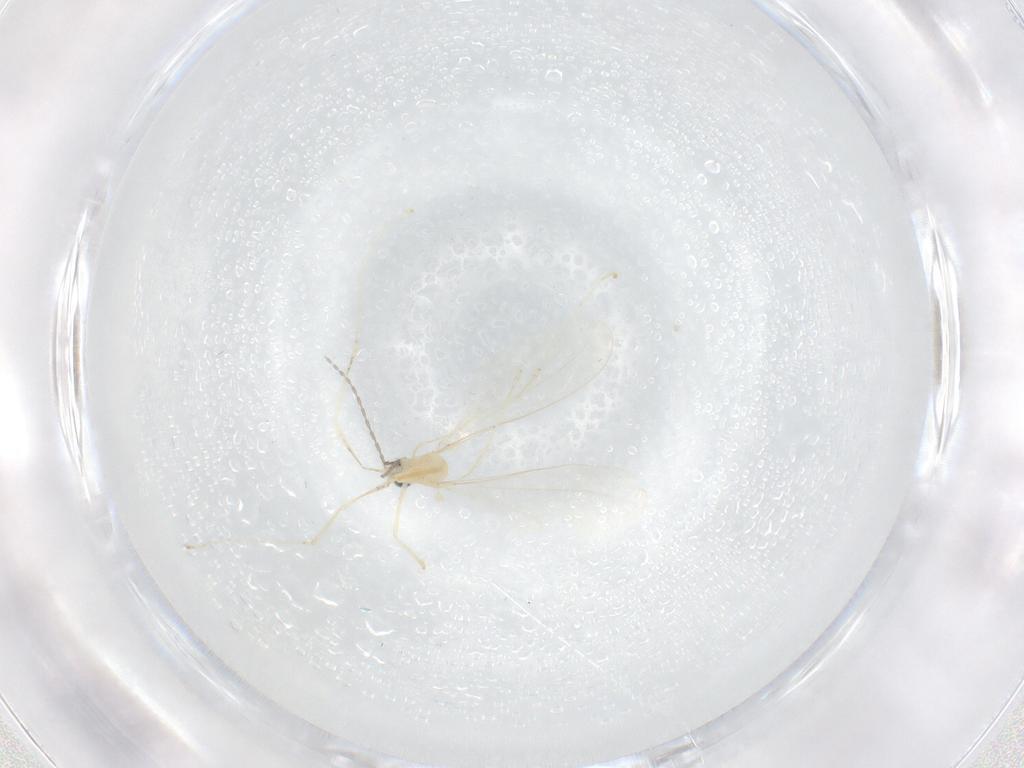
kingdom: Animalia
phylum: Arthropoda
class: Insecta
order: Diptera
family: Cecidomyiidae
